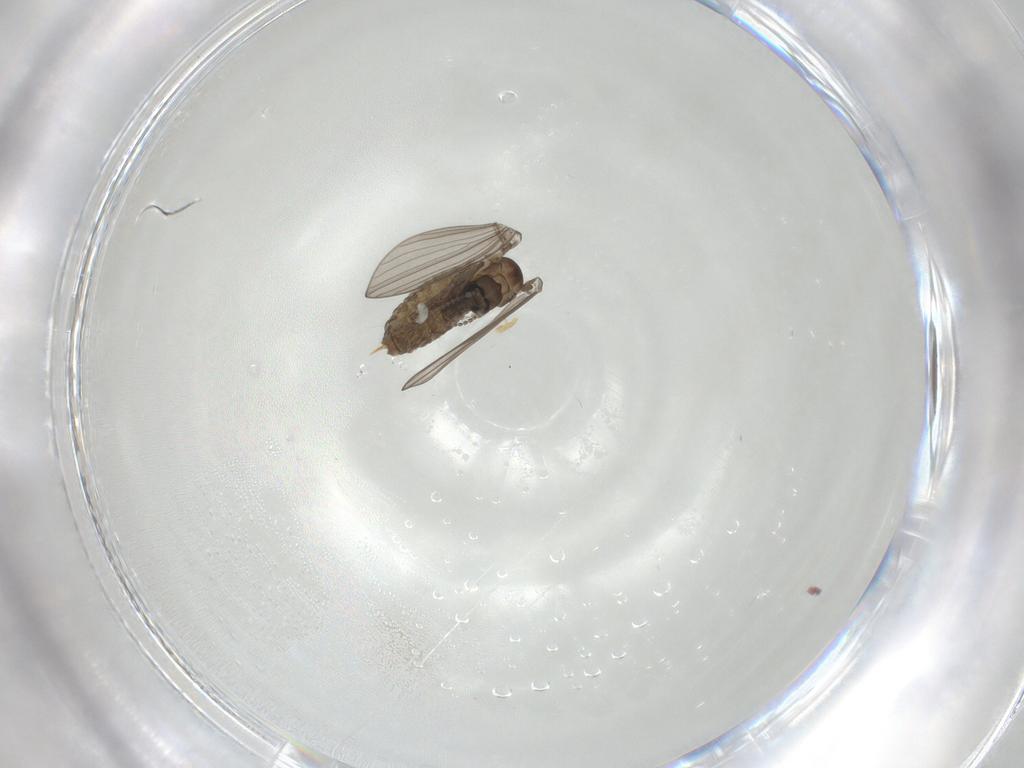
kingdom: Animalia
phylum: Arthropoda
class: Insecta
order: Diptera
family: Psychodidae
